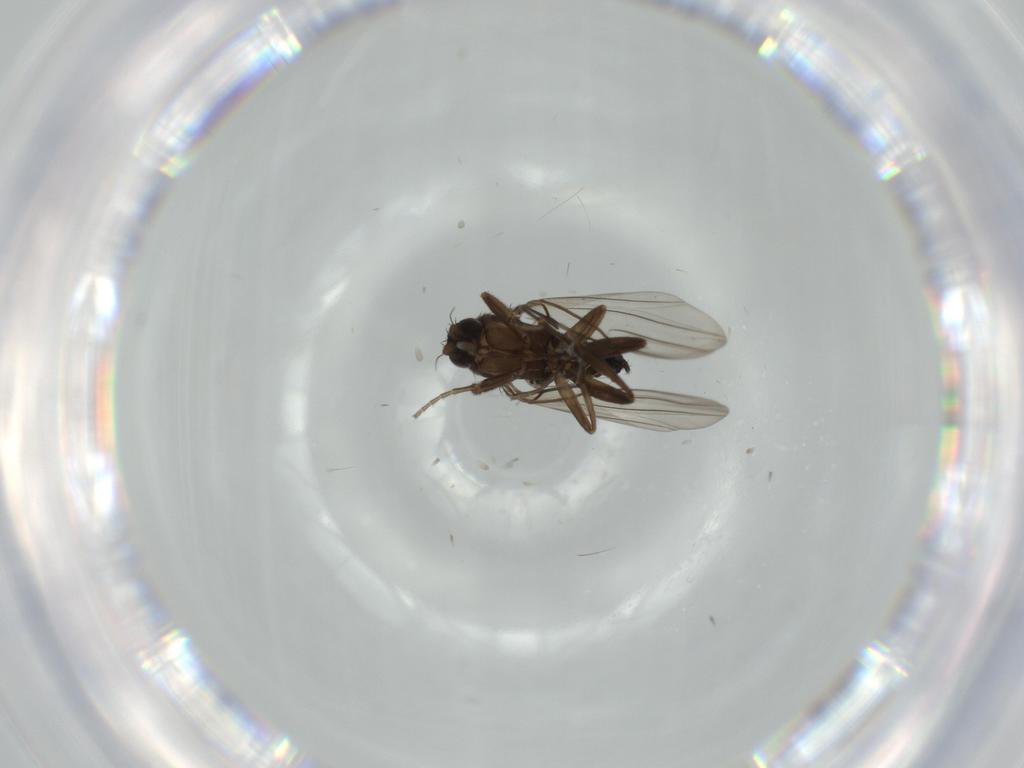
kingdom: Animalia
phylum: Arthropoda
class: Insecta
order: Diptera
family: Cecidomyiidae
